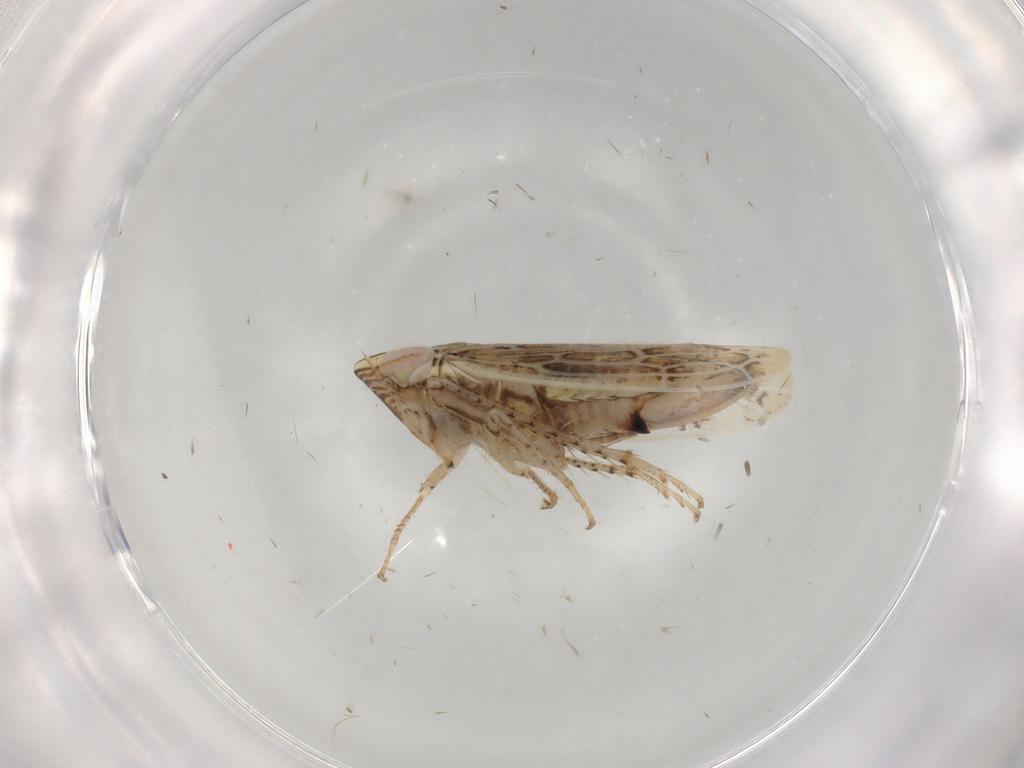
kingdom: Animalia
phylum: Arthropoda
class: Insecta
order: Hemiptera
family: Cicadellidae
